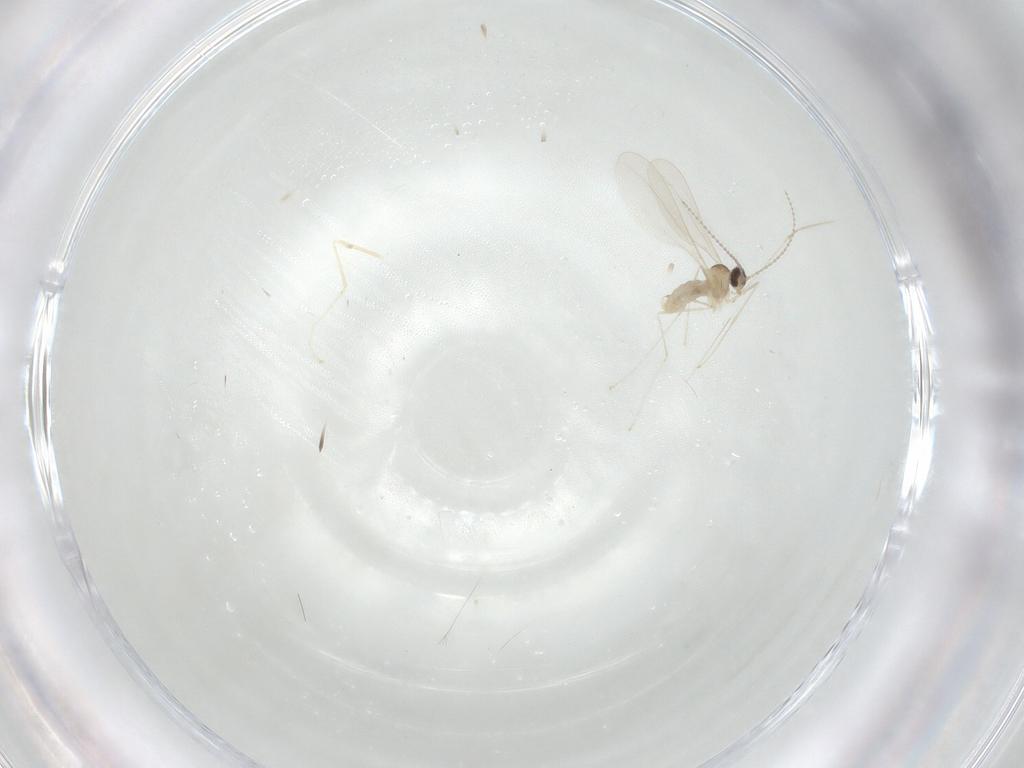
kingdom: Animalia
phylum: Arthropoda
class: Insecta
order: Diptera
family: Cecidomyiidae
